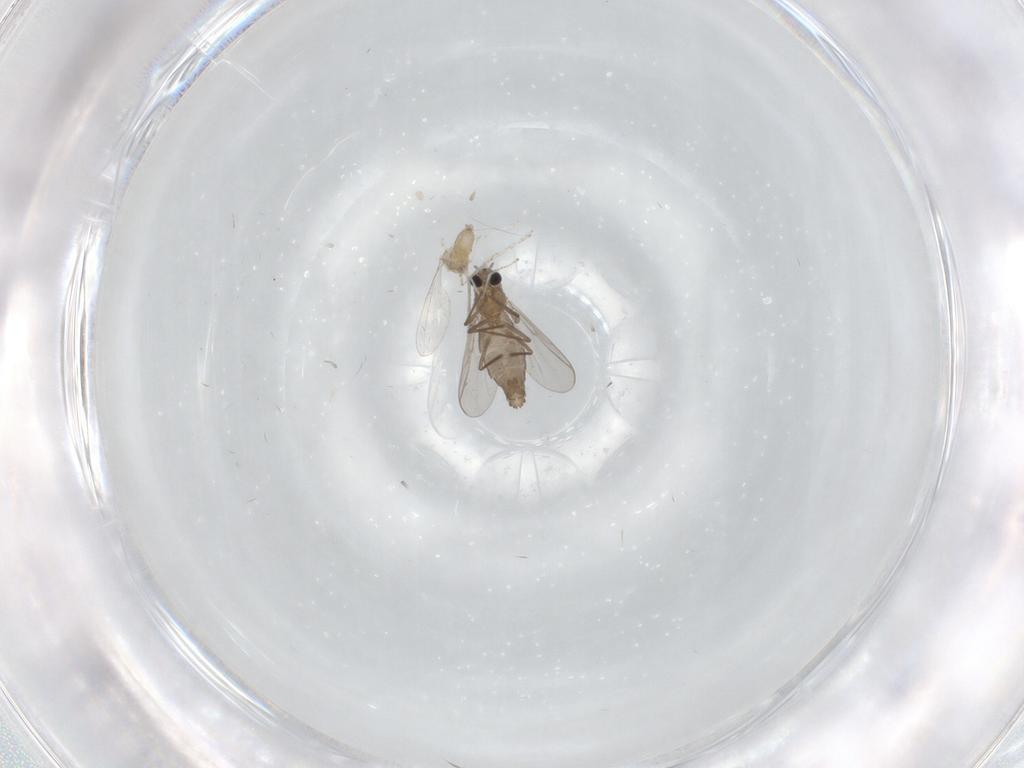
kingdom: Animalia
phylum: Arthropoda
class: Insecta
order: Diptera
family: Cecidomyiidae
